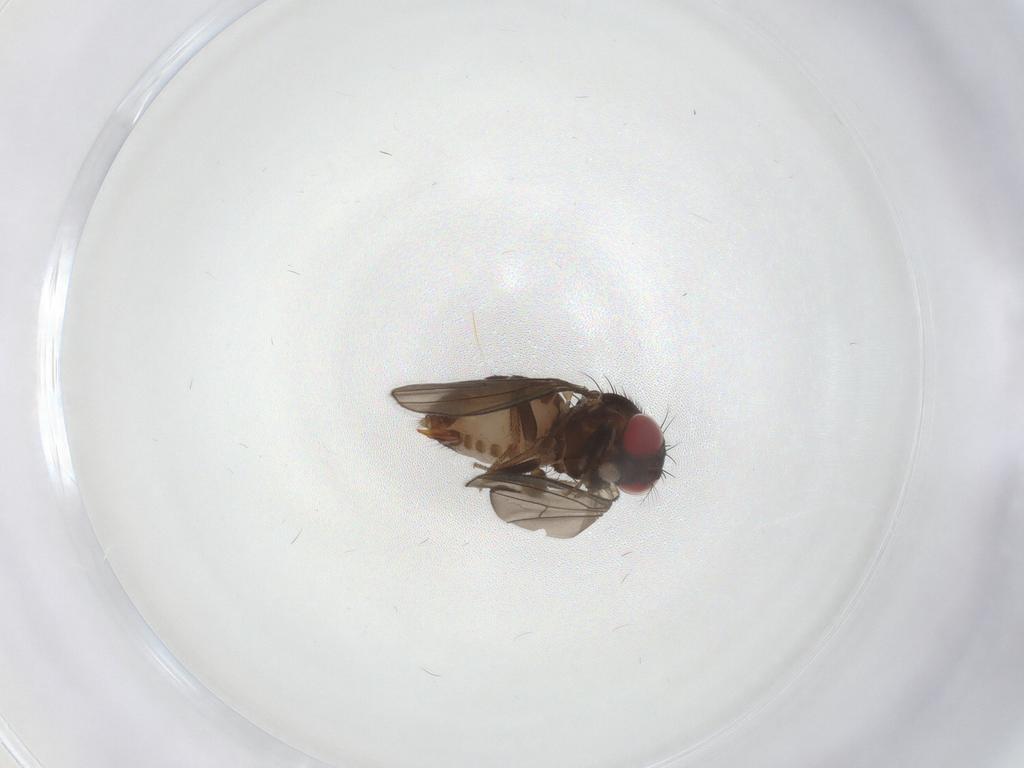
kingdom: Animalia
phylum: Arthropoda
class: Insecta
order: Diptera
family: Drosophilidae
